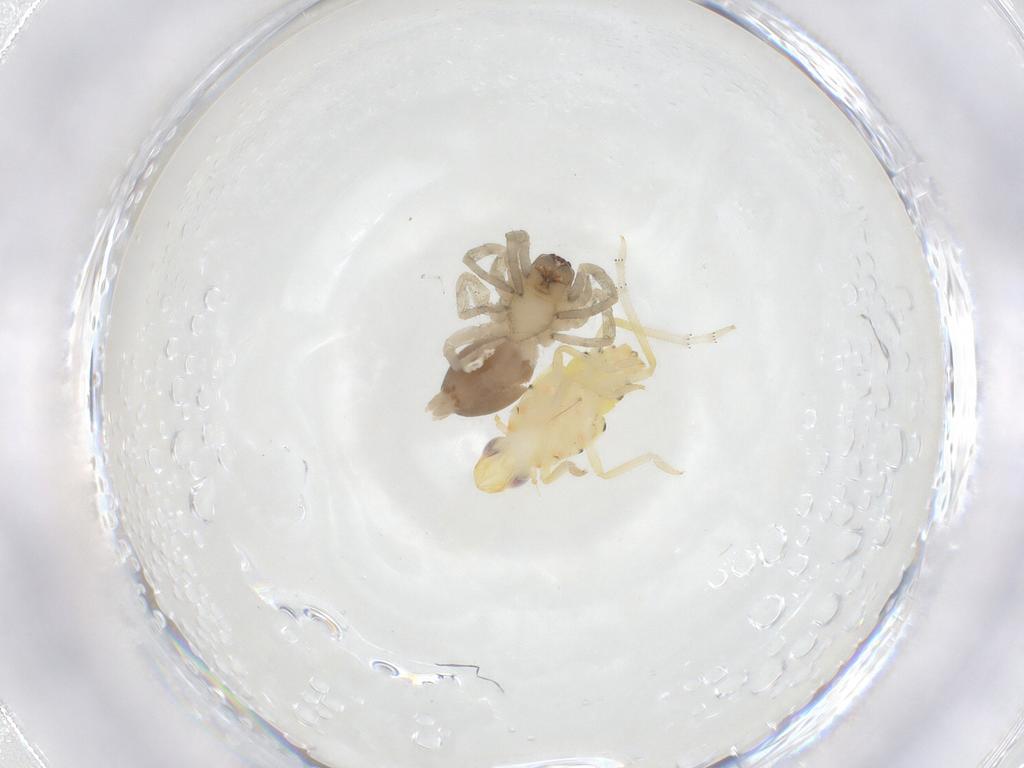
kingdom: Animalia
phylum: Arthropoda
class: Insecta
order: Hemiptera
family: Tropiduchidae
